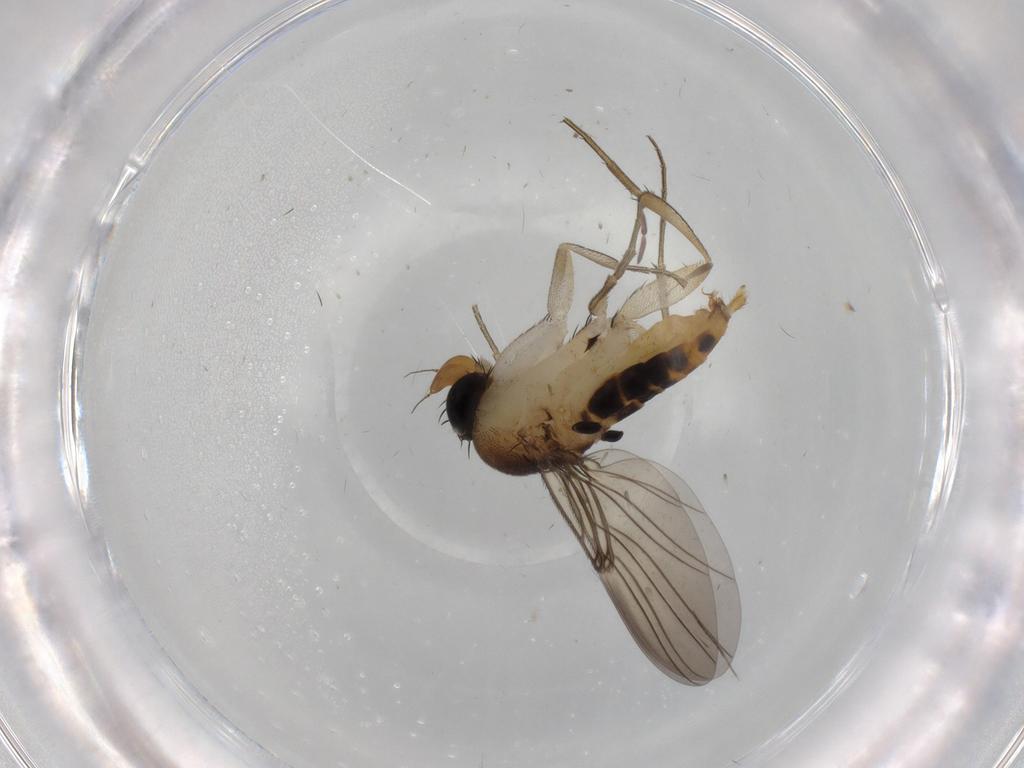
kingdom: Animalia
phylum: Arthropoda
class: Insecta
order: Diptera
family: Phoridae
